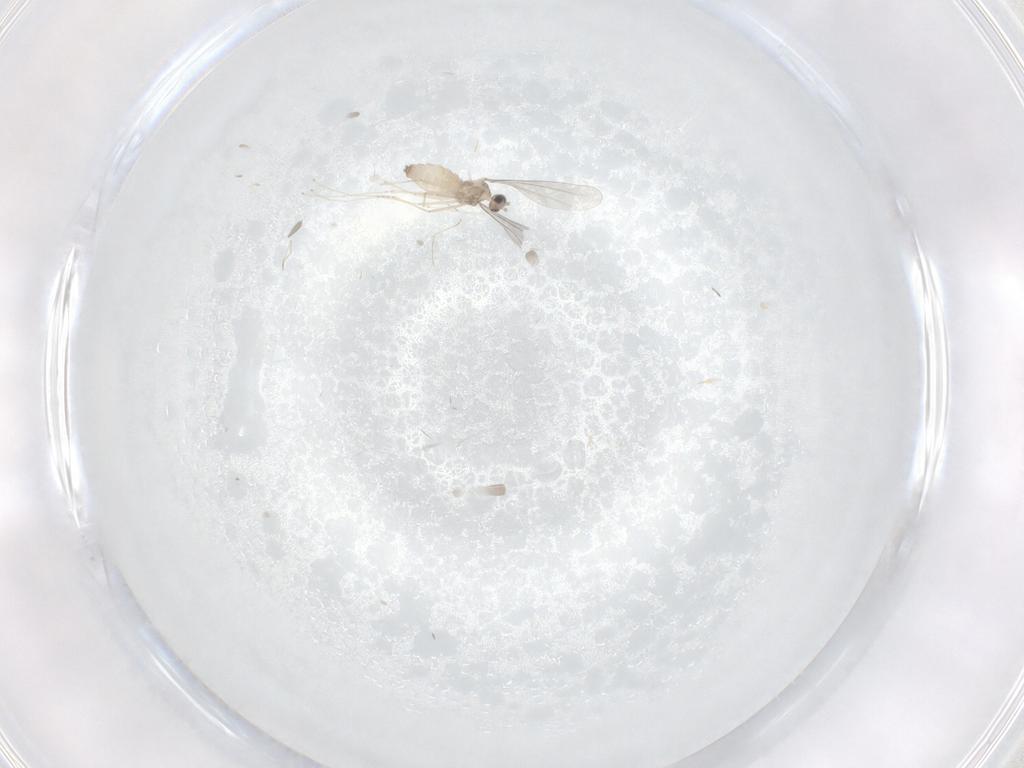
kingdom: Animalia
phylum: Arthropoda
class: Insecta
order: Diptera
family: Cecidomyiidae
